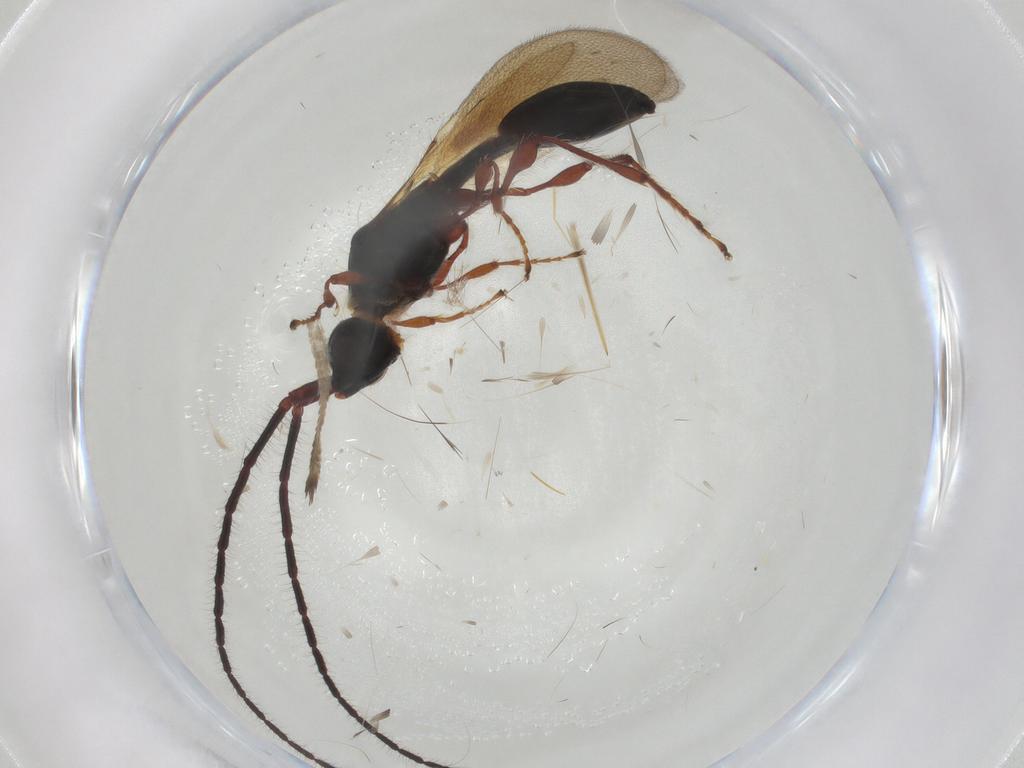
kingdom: Animalia
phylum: Arthropoda
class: Insecta
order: Hymenoptera
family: Diapriidae
